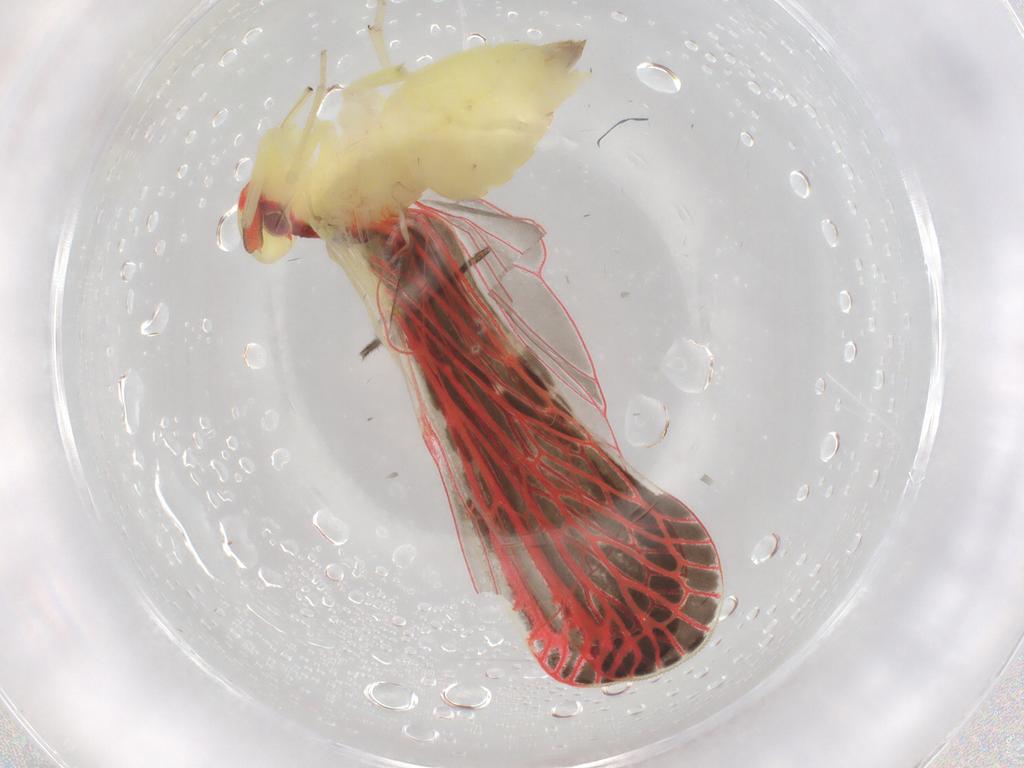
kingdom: Animalia
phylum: Arthropoda
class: Insecta
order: Hemiptera
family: Derbidae
